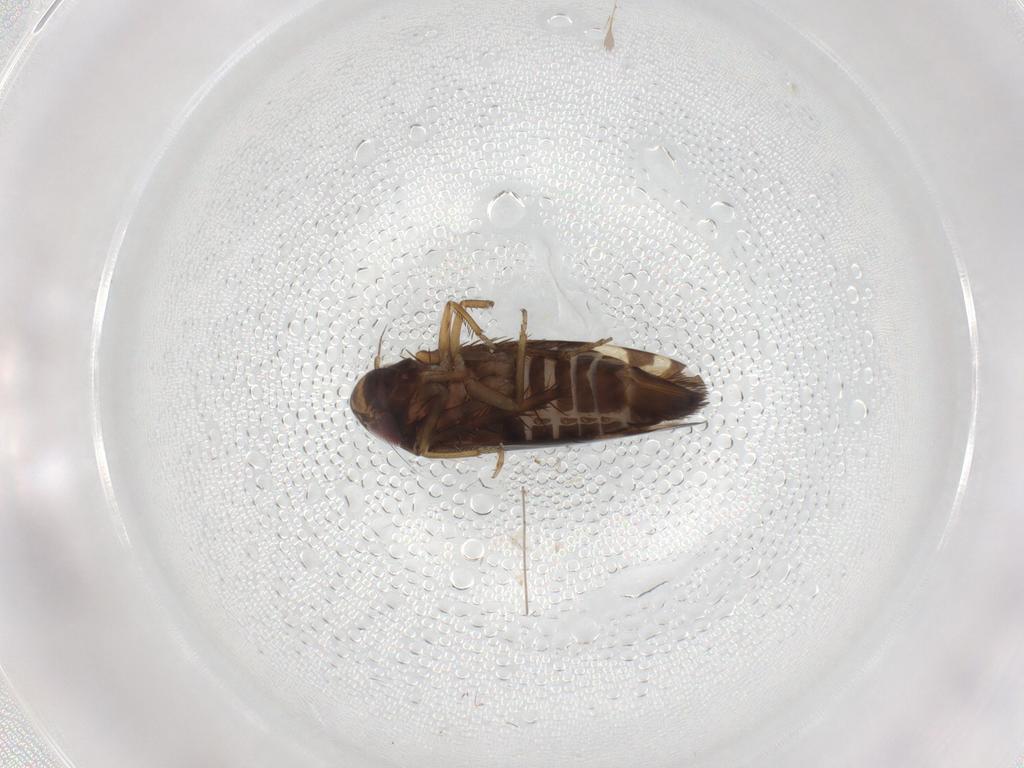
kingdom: Animalia
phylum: Arthropoda
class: Insecta
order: Hemiptera
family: Cicadellidae
